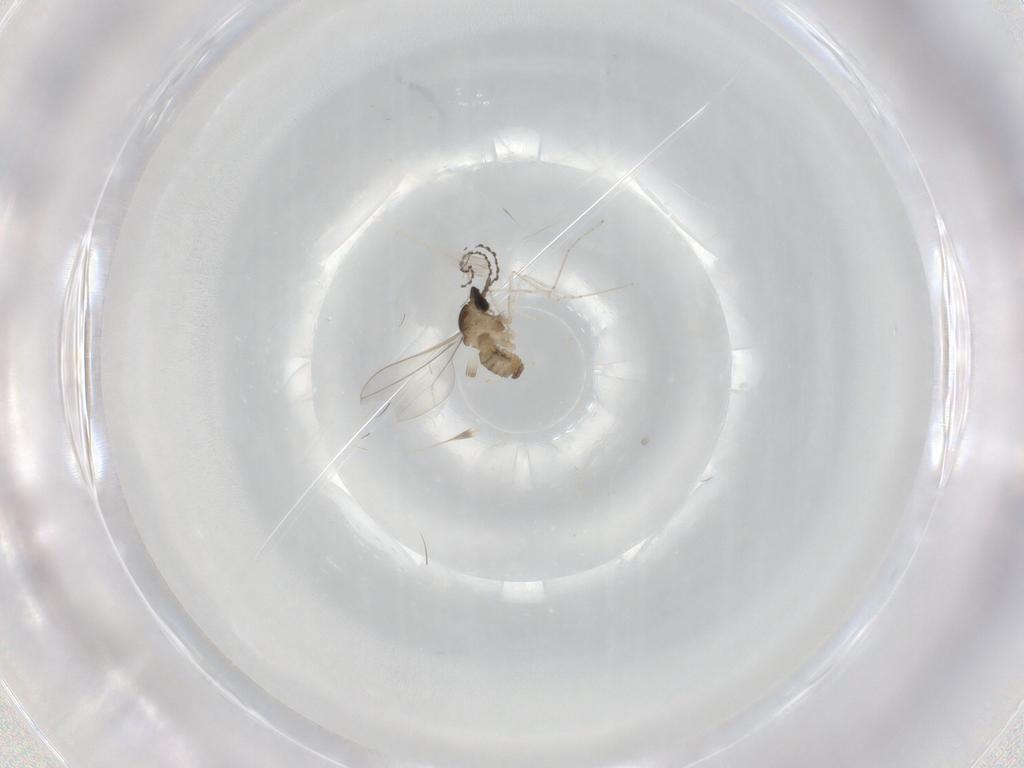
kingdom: Animalia
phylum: Arthropoda
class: Insecta
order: Diptera
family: Cecidomyiidae
